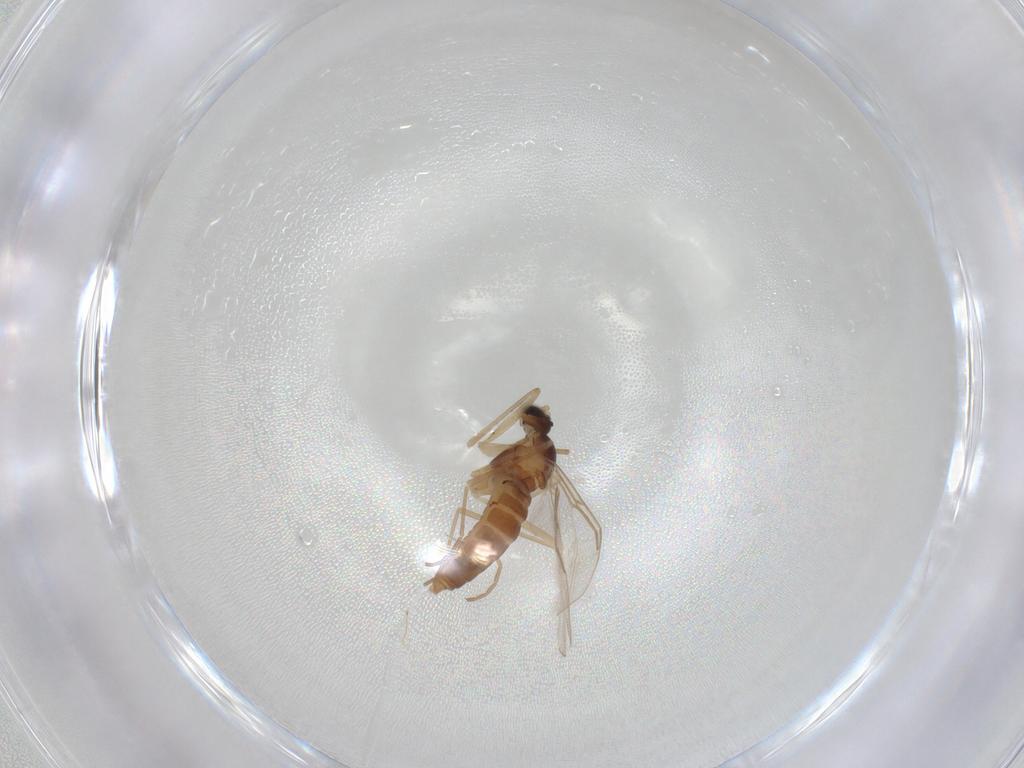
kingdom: Animalia
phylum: Arthropoda
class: Insecta
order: Diptera
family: Cecidomyiidae
